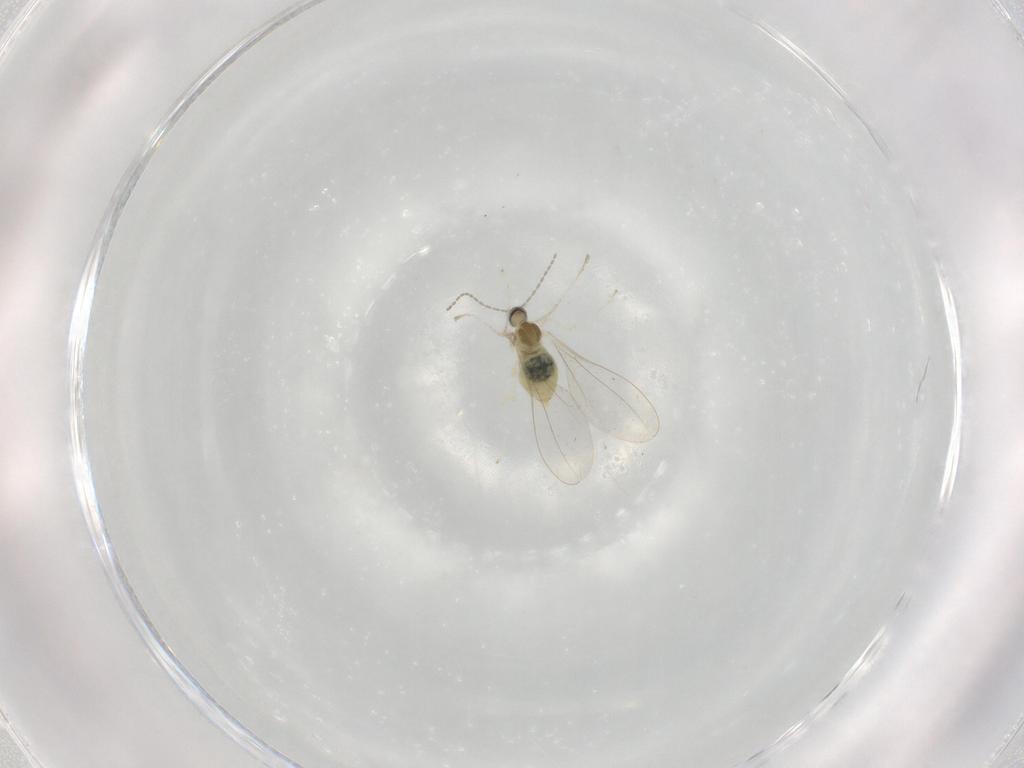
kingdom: Animalia
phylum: Arthropoda
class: Insecta
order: Diptera
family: Cecidomyiidae
